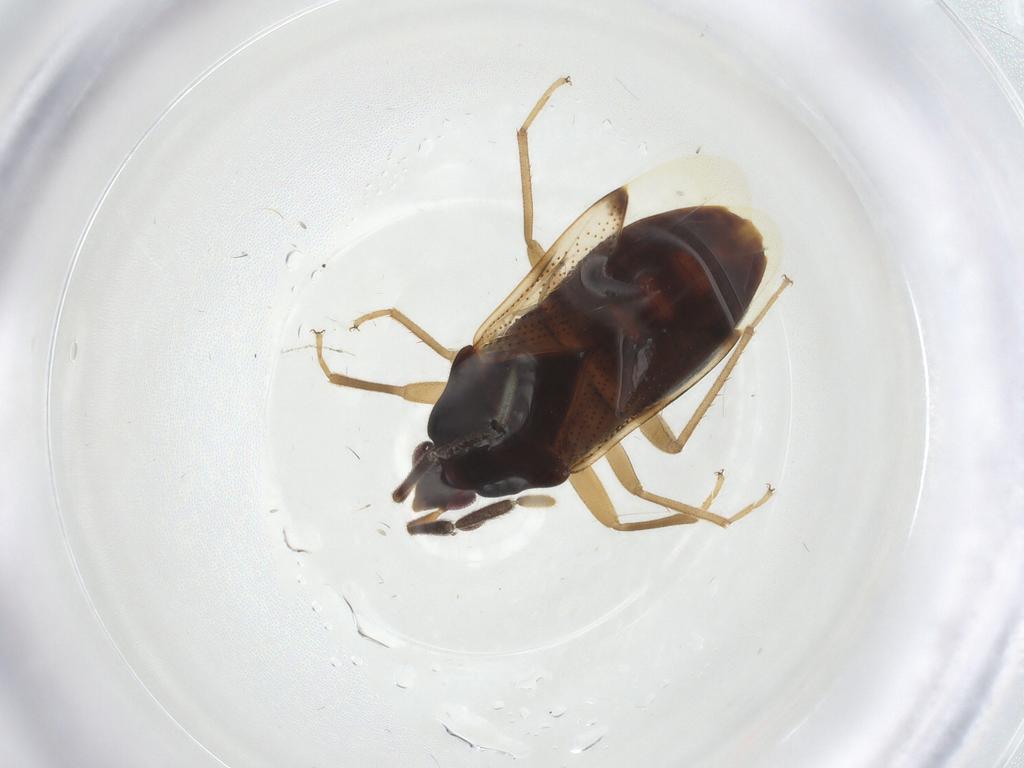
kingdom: Animalia
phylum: Arthropoda
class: Insecta
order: Hemiptera
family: Rhyparochromidae
